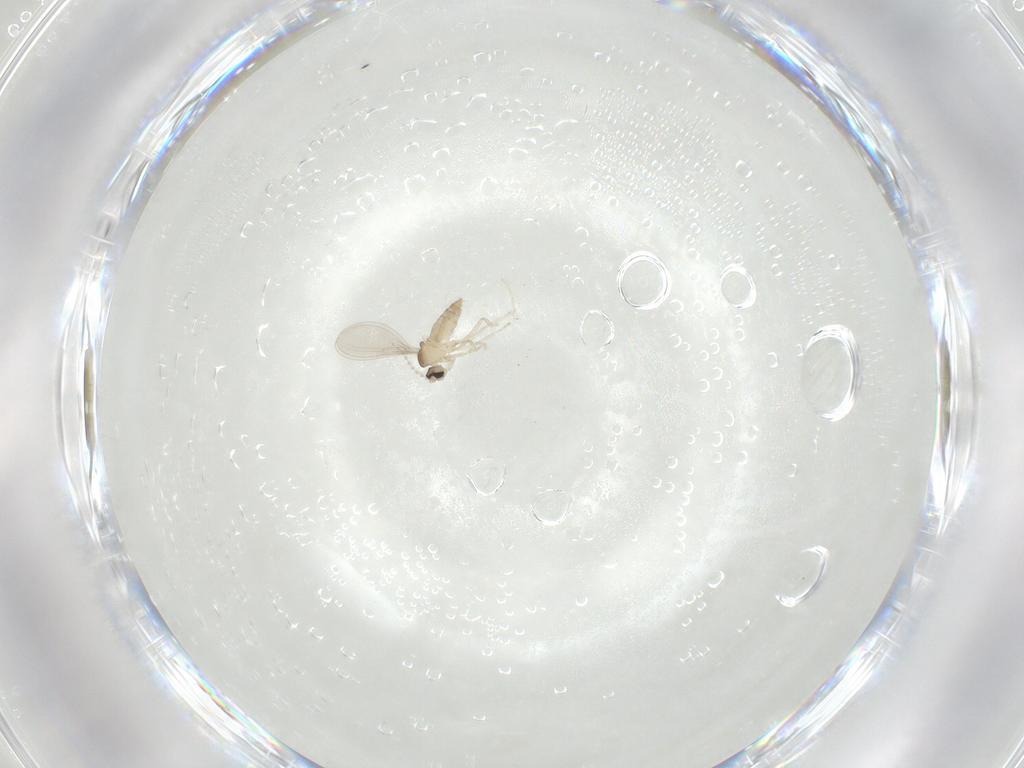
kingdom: Animalia
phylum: Arthropoda
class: Insecta
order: Diptera
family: Cecidomyiidae
